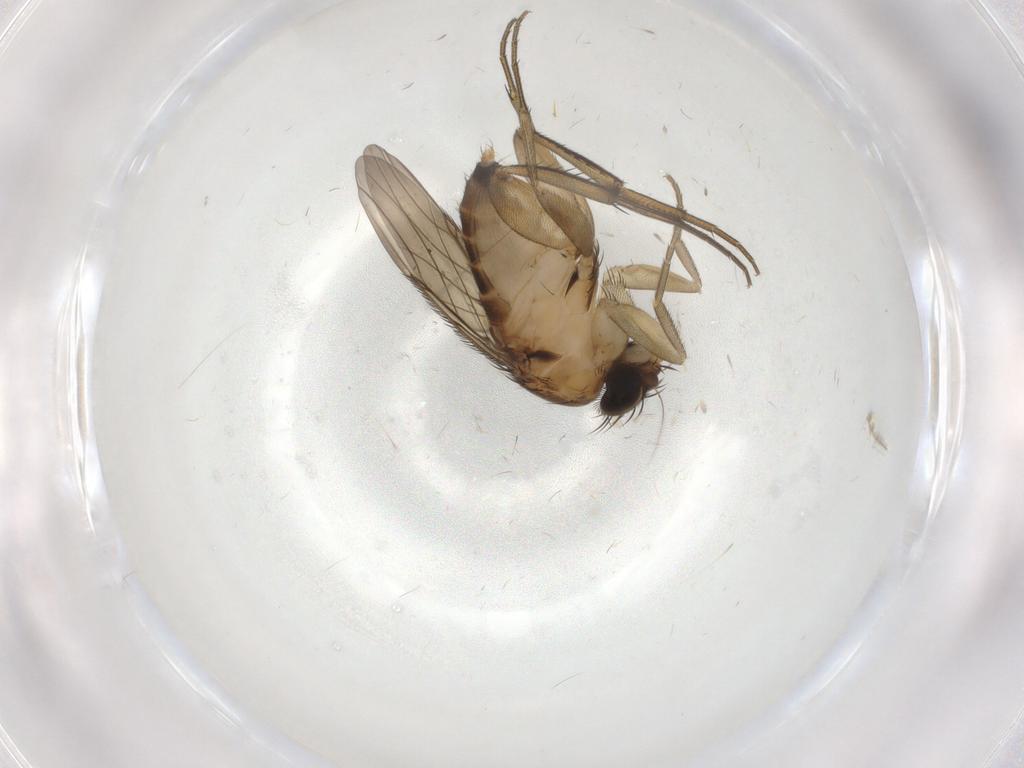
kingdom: Animalia
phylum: Arthropoda
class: Insecta
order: Diptera
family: Phoridae
